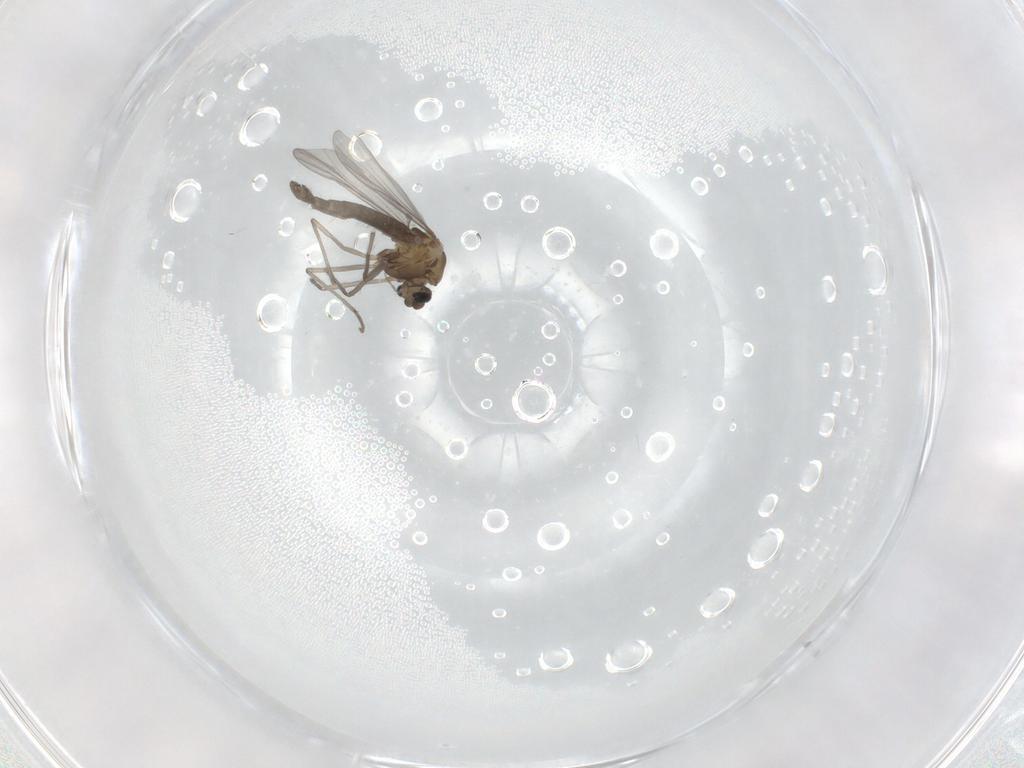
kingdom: Animalia
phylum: Arthropoda
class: Insecta
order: Diptera
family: Chironomidae
